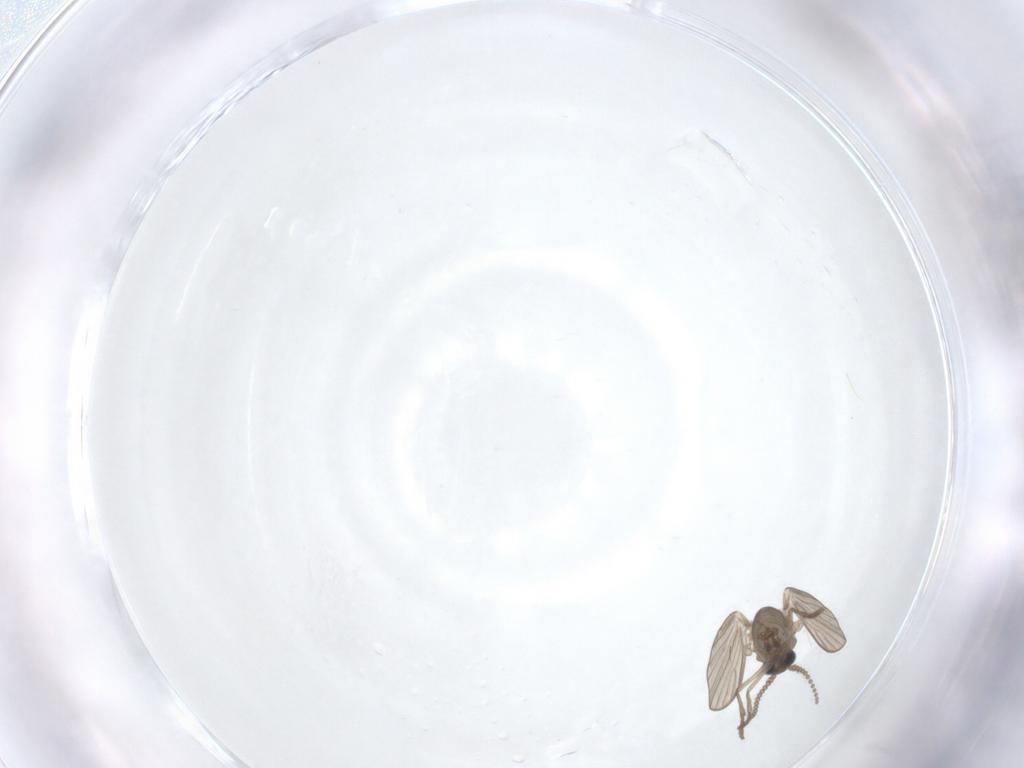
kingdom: Animalia
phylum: Arthropoda
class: Insecta
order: Diptera
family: Psychodidae
